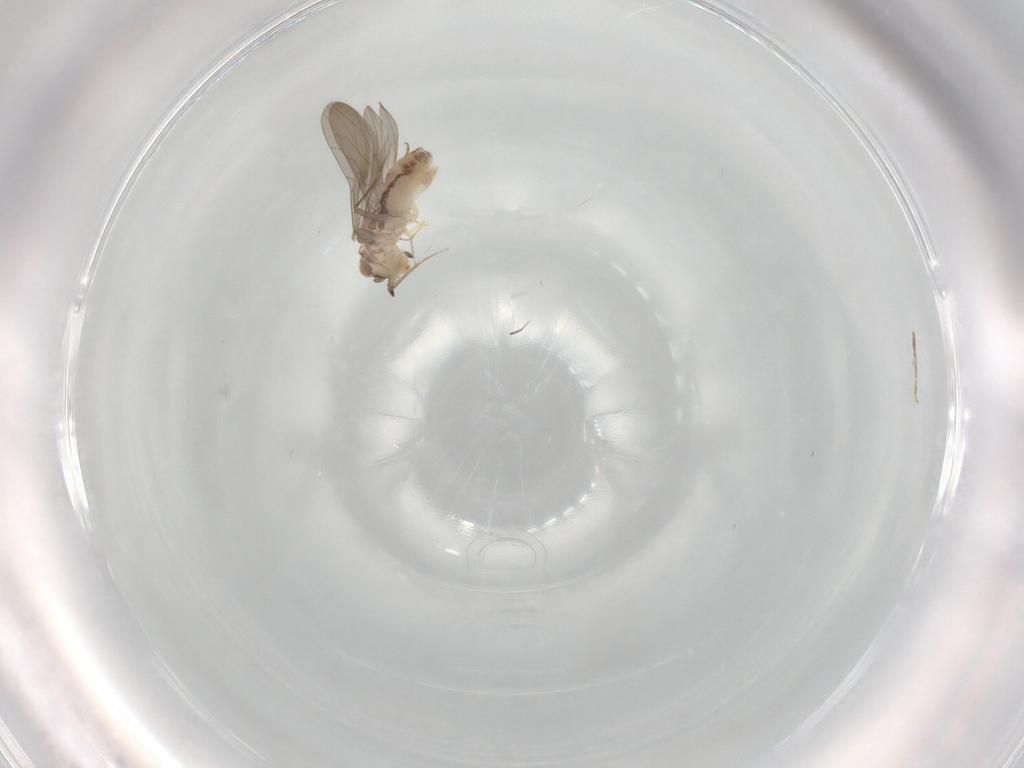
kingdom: Animalia
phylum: Arthropoda
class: Insecta
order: Psocodea
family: Lepidopsocidae
